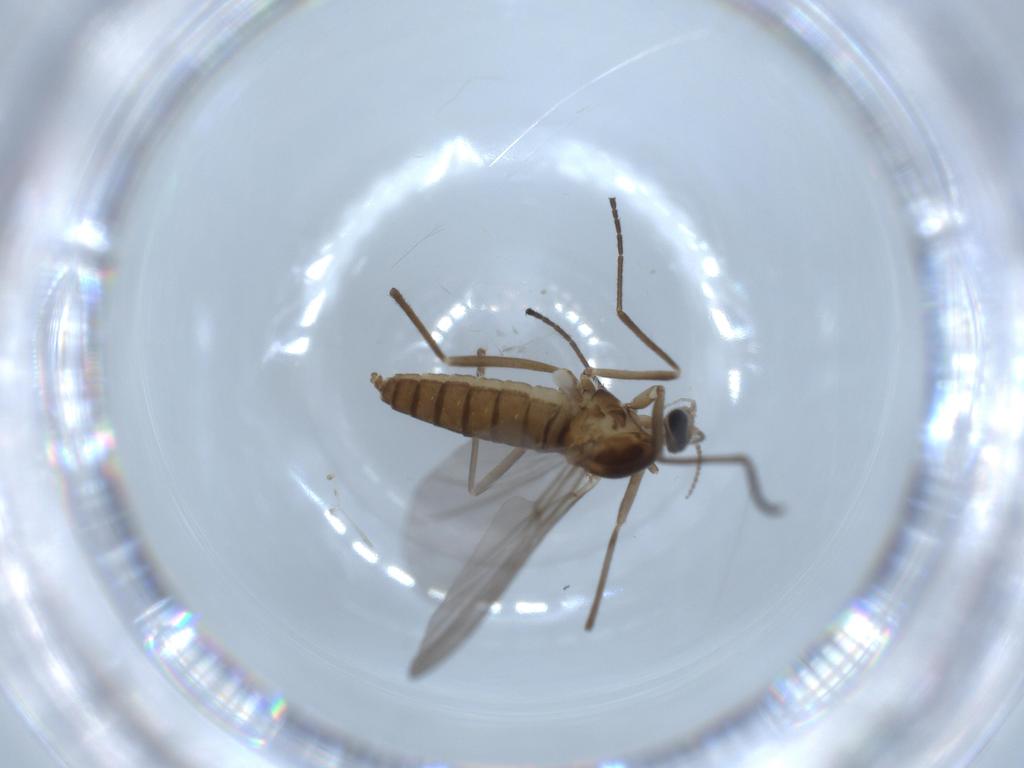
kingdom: Animalia
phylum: Arthropoda
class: Insecta
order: Diptera
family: Cecidomyiidae
